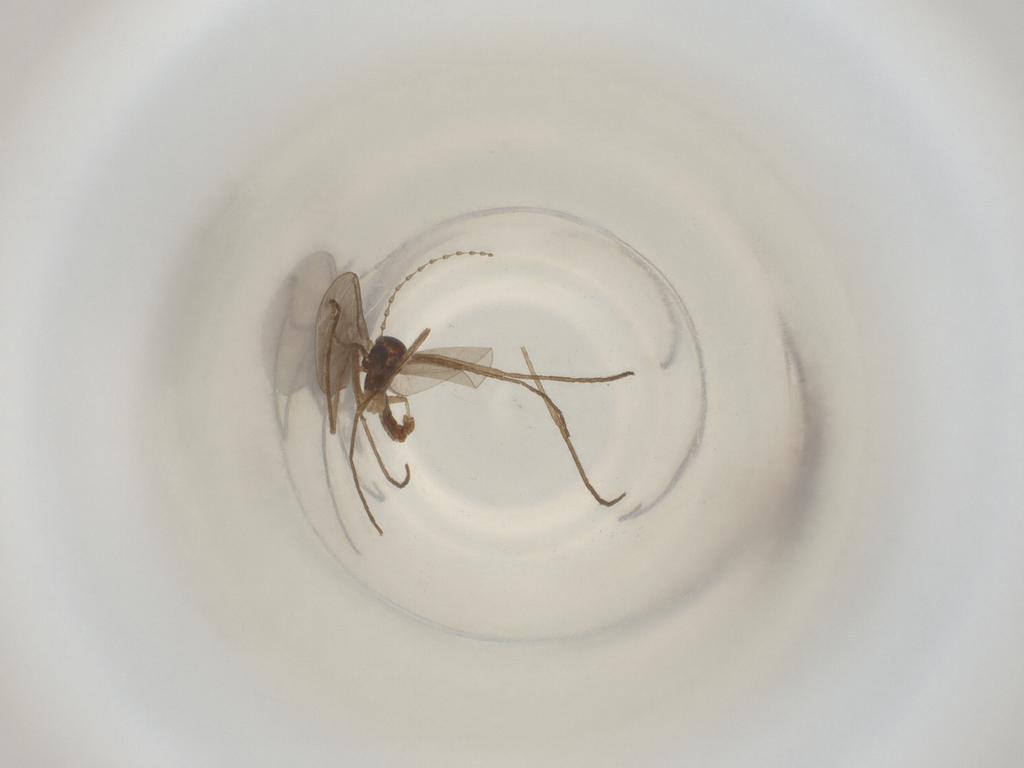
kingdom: Animalia
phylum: Arthropoda
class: Insecta
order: Diptera
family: Cecidomyiidae
